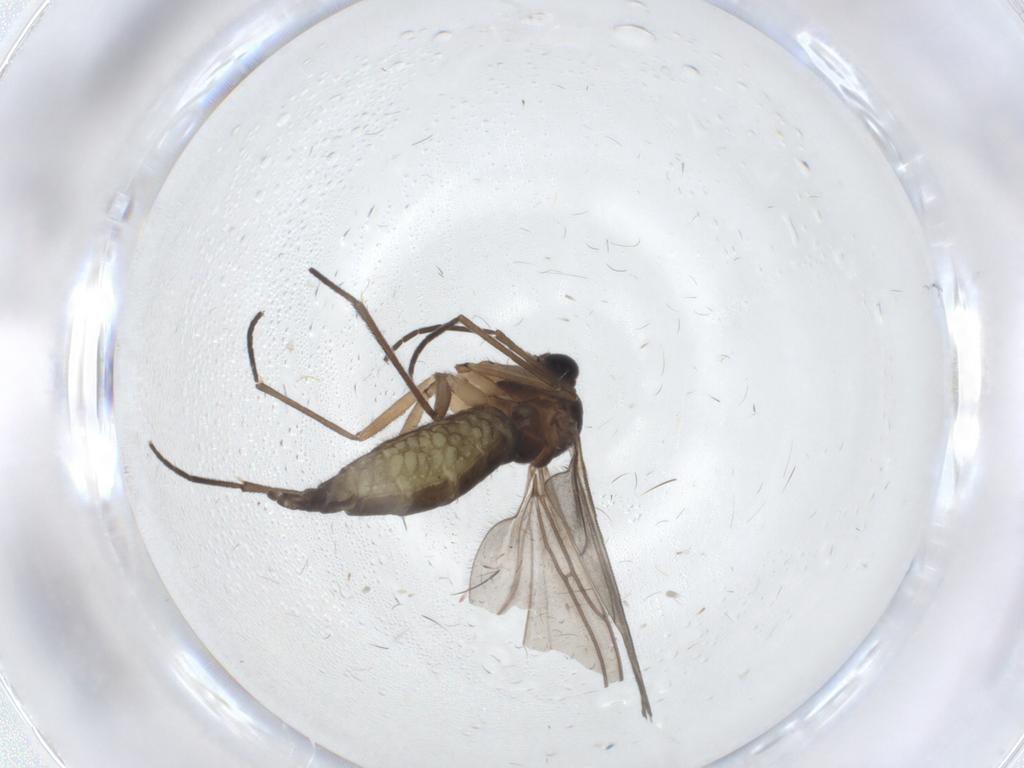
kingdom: Animalia
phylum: Arthropoda
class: Insecta
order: Diptera
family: Sciaridae
